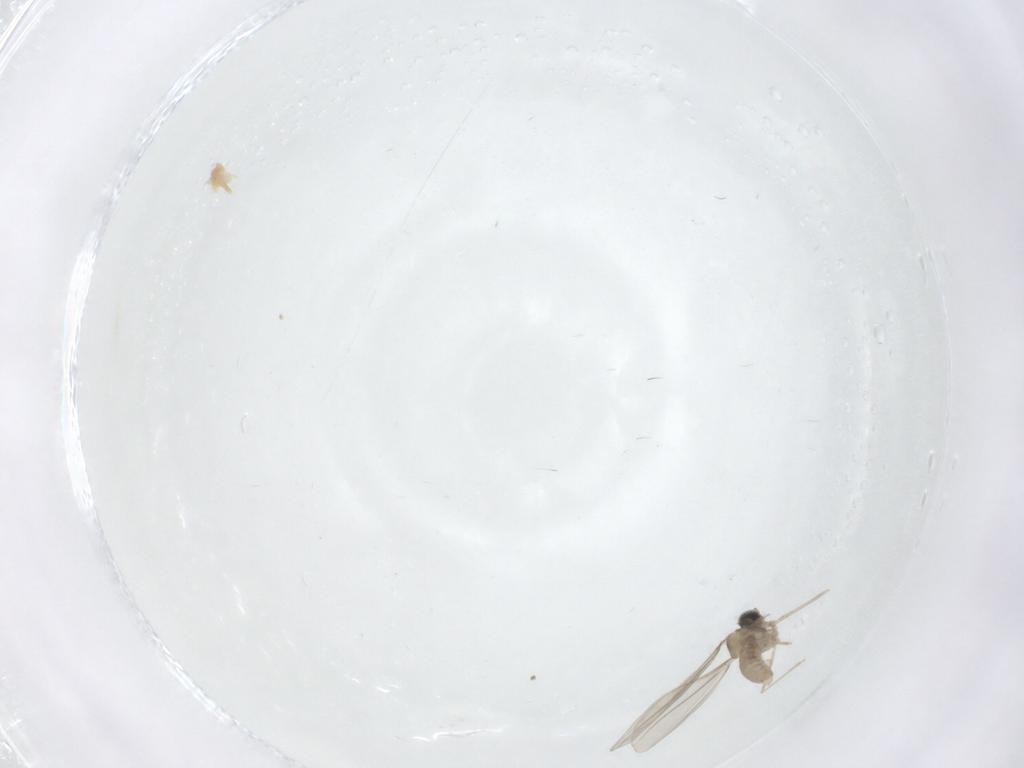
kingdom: Animalia
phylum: Arthropoda
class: Insecta
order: Diptera
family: Cecidomyiidae
